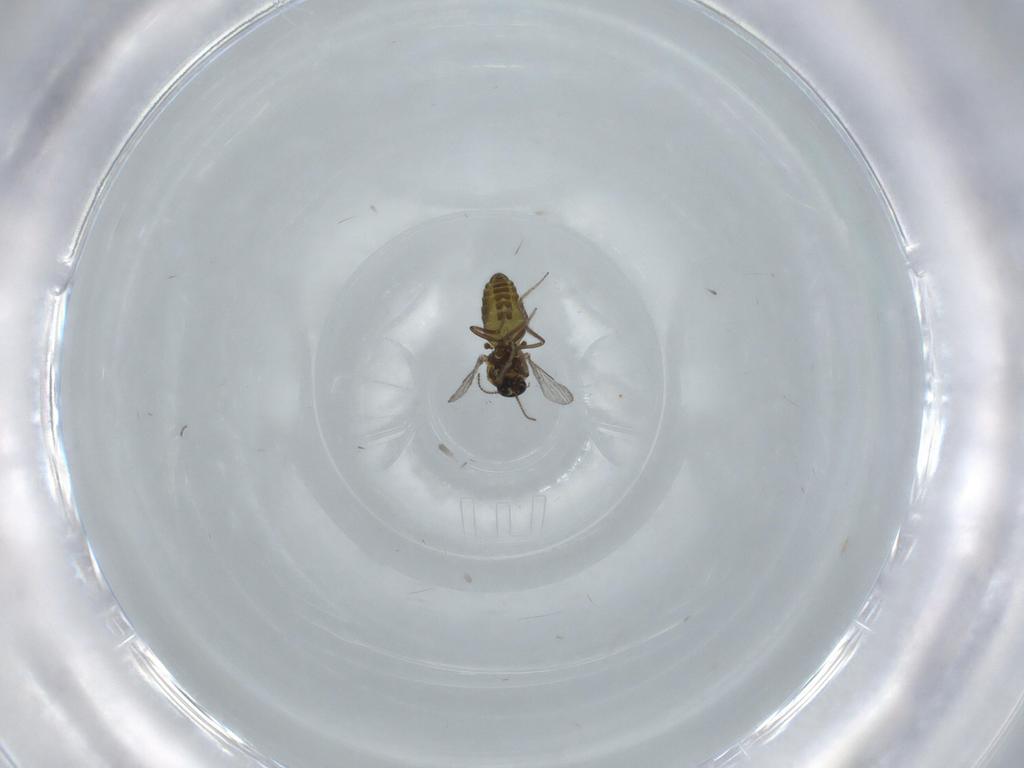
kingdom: Animalia
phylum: Arthropoda
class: Insecta
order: Diptera
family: Ceratopogonidae
